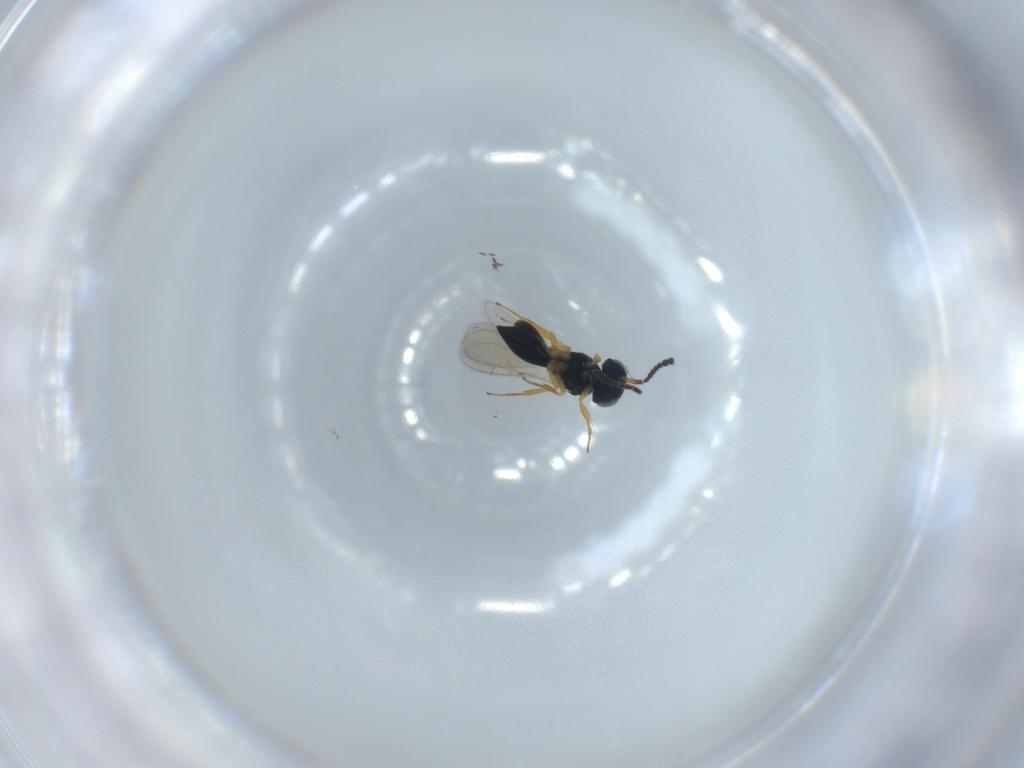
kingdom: Animalia
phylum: Arthropoda
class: Insecta
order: Hymenoptera
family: Scelionidae
